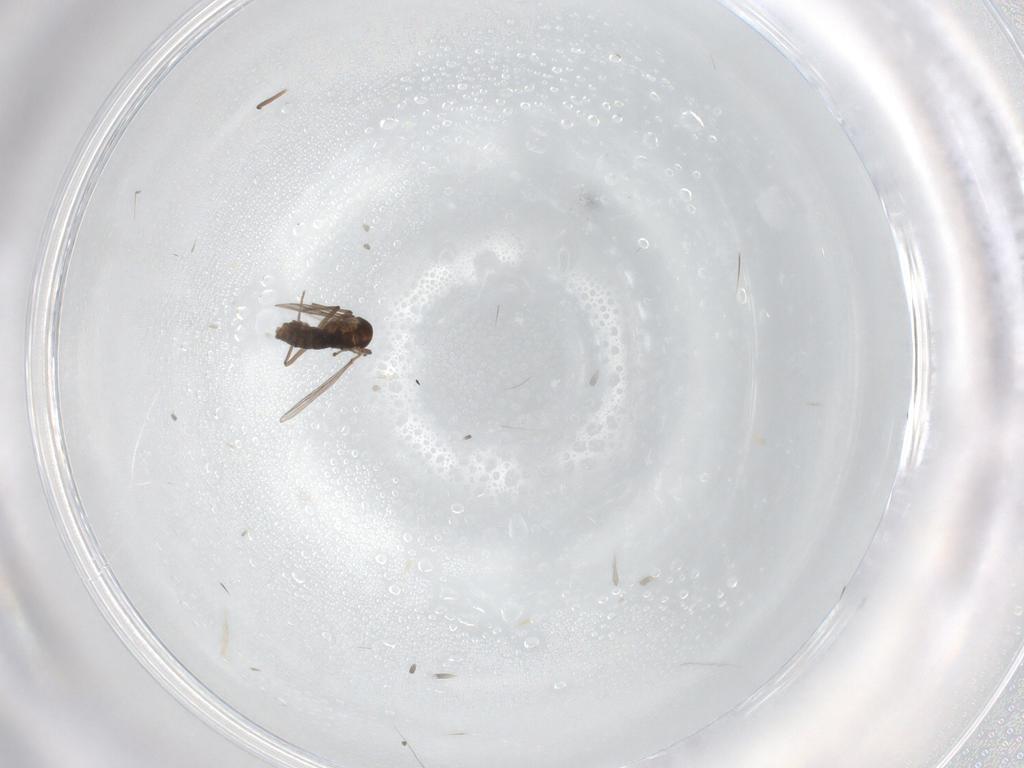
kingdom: Animalia
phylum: Arthropoda
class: Insecta
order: Diptera
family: Chironomidae
